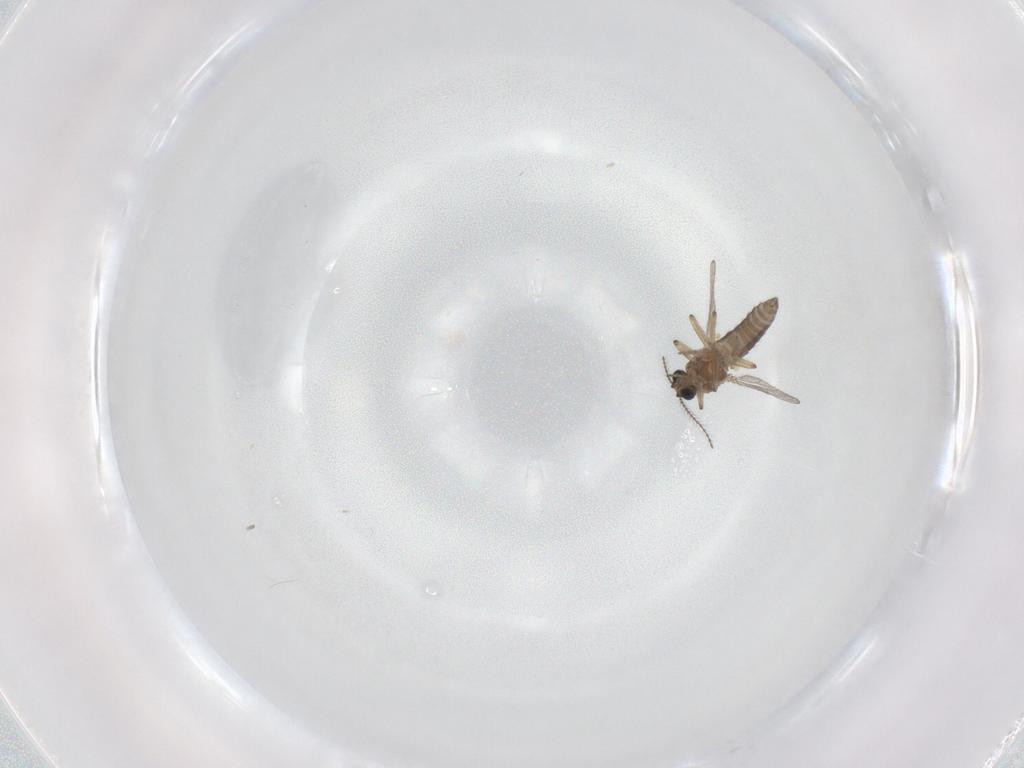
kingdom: Animalia
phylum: Arthropoda
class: Insecta
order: Diptera
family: Ceratopogonidae
